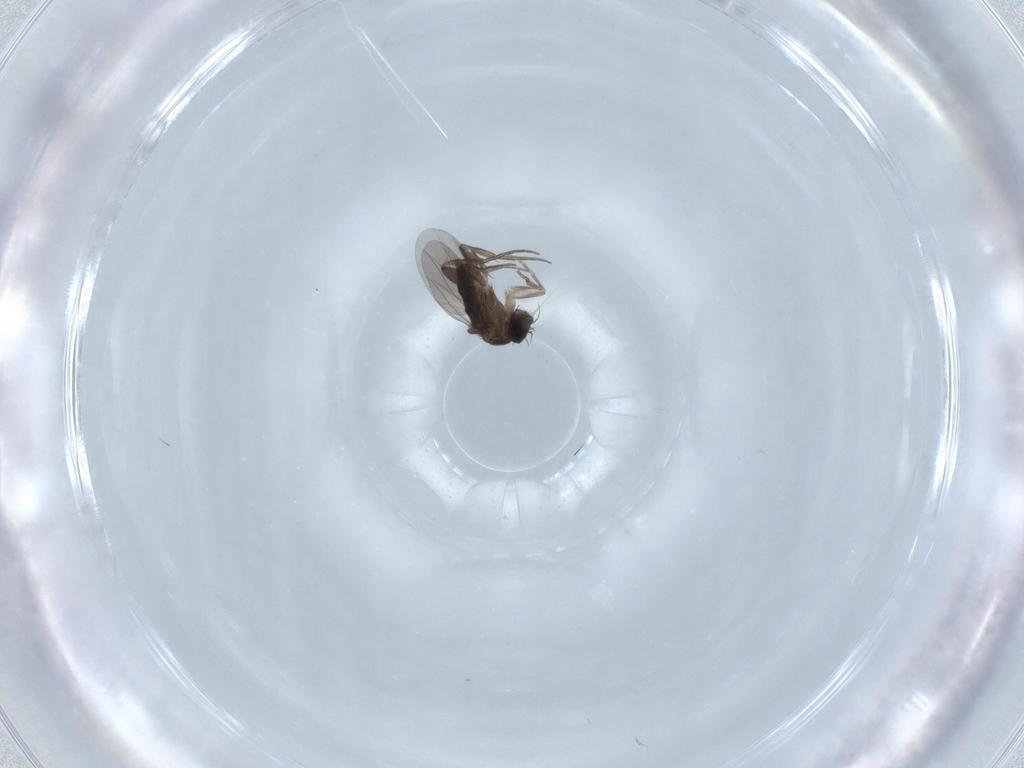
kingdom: Animalia
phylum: Arthropoda
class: Insecta
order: Diptera
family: Phoridae
